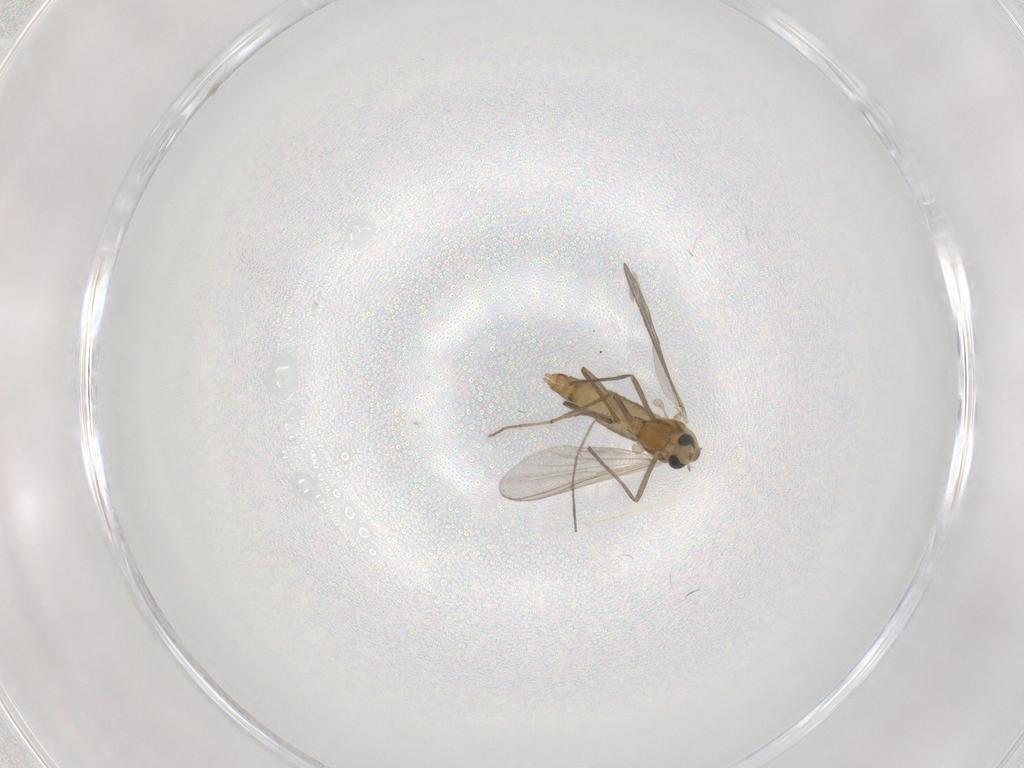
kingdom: Animalia
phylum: Arthropoda
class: Insecta
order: Diptera
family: Chironomidae
